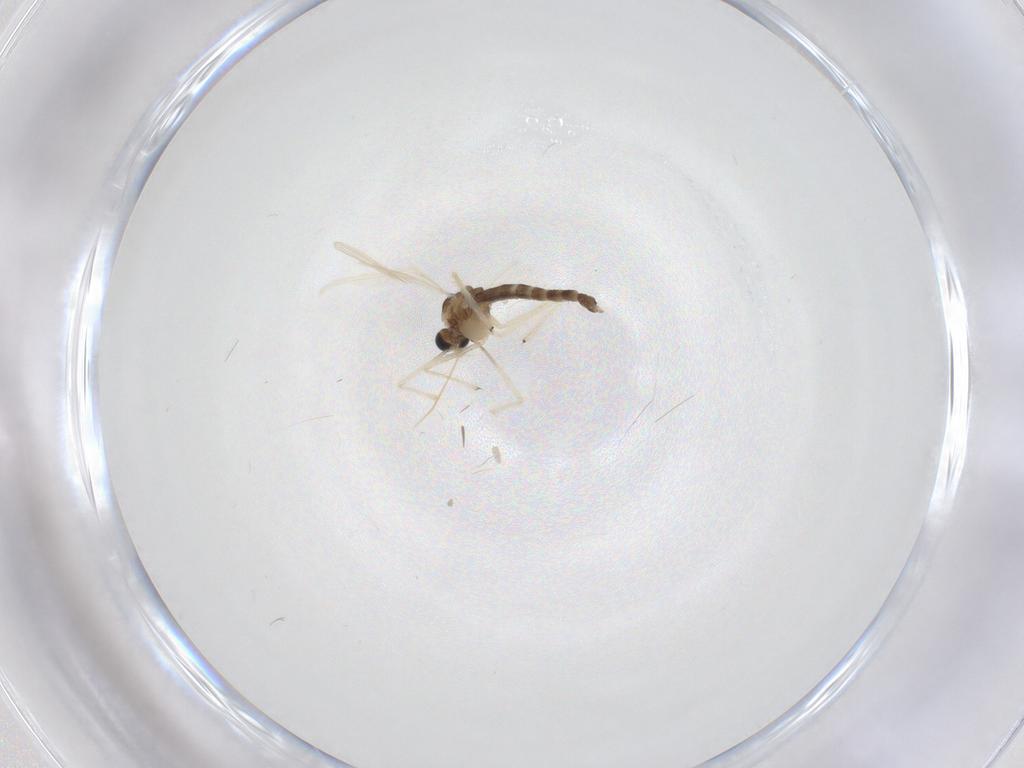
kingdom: Animalia
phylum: Arthropoda
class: Insecta
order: Diptera
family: Chironomidae
